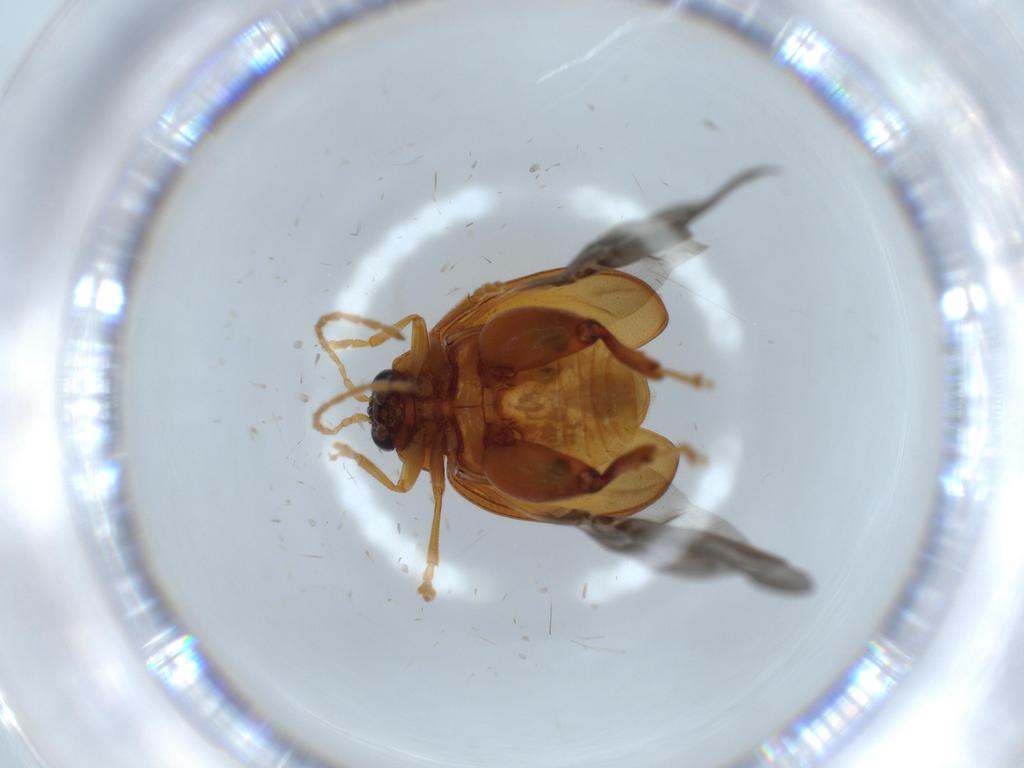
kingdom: Animalia
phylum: Arthropoda
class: Insecta
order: Coleoptera
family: Chrysomelidae
